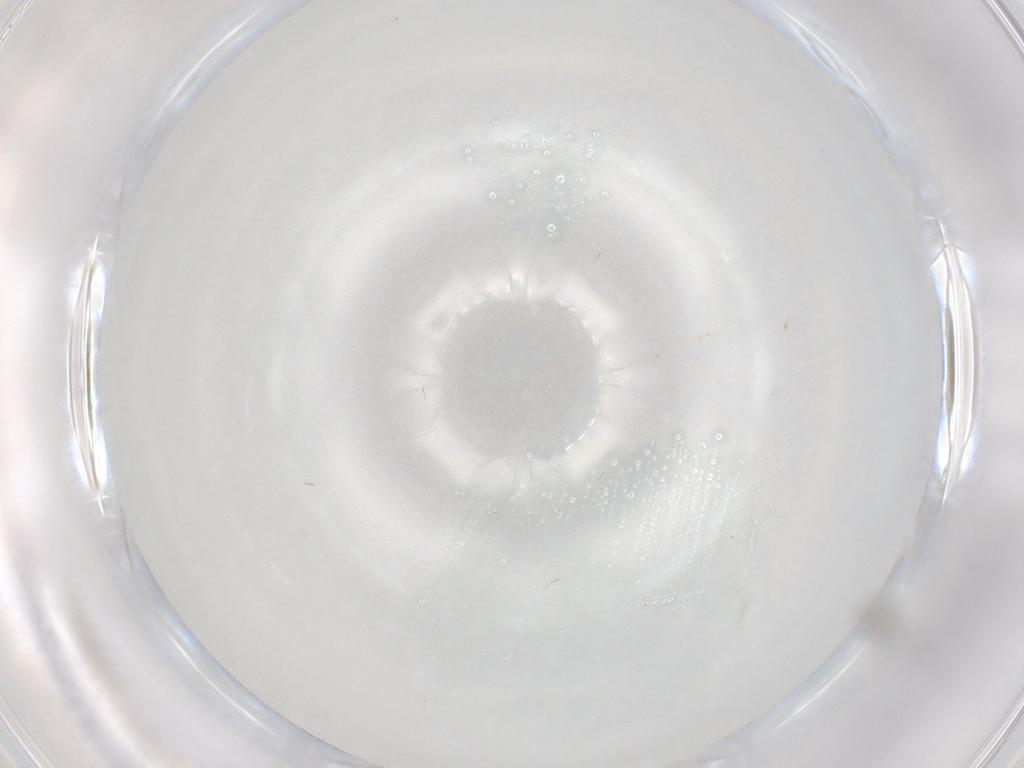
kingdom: Animalia
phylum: Arthropoda
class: Insecta
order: Diptera
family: Cecidomyiidae
